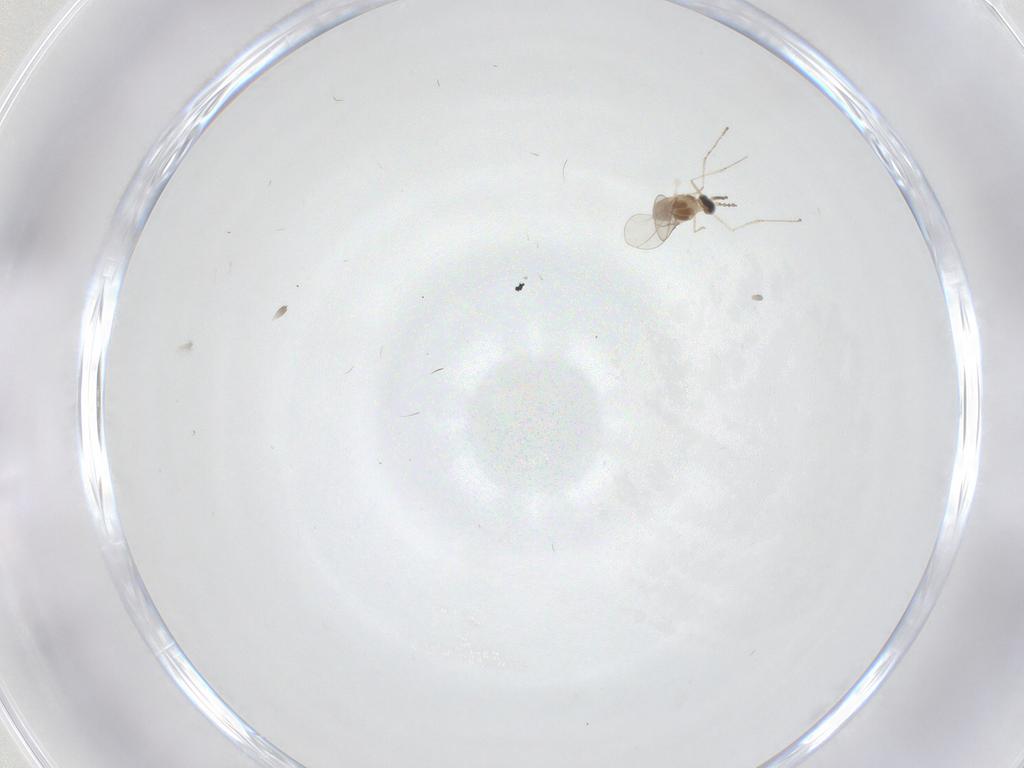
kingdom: Animalia
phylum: Arthropoda
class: Insecta
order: Diptera
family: Cecidomyiidae
